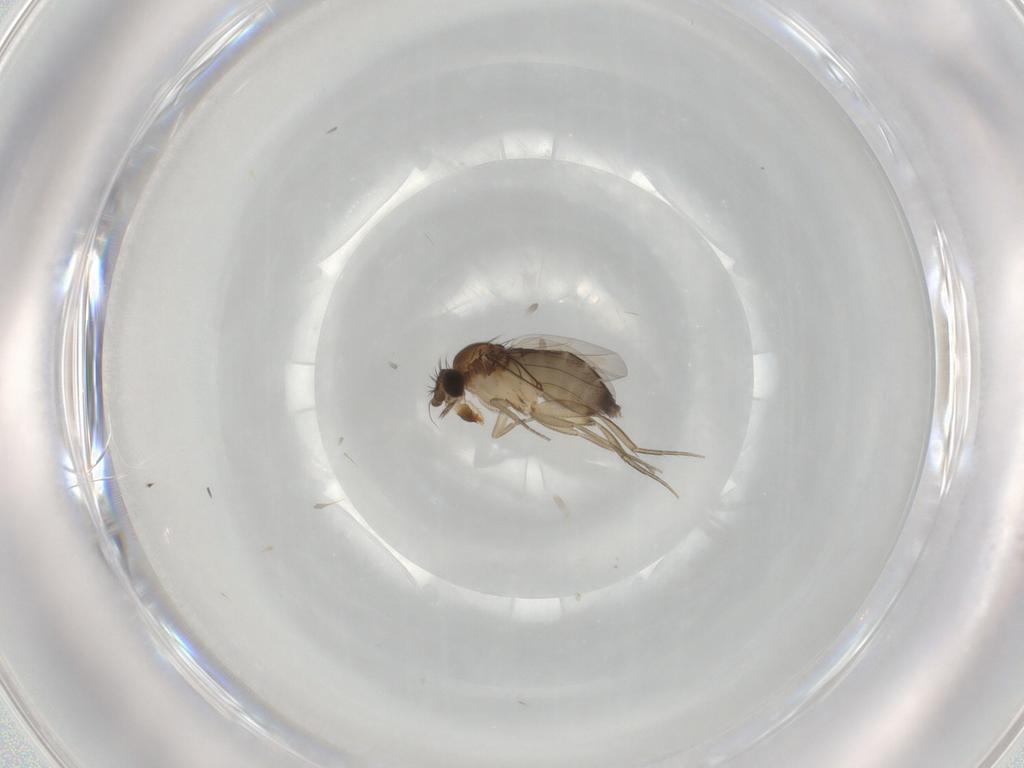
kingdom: Animalia
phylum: Arthropoda
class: Insecta
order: Diptera
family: Phoridae
